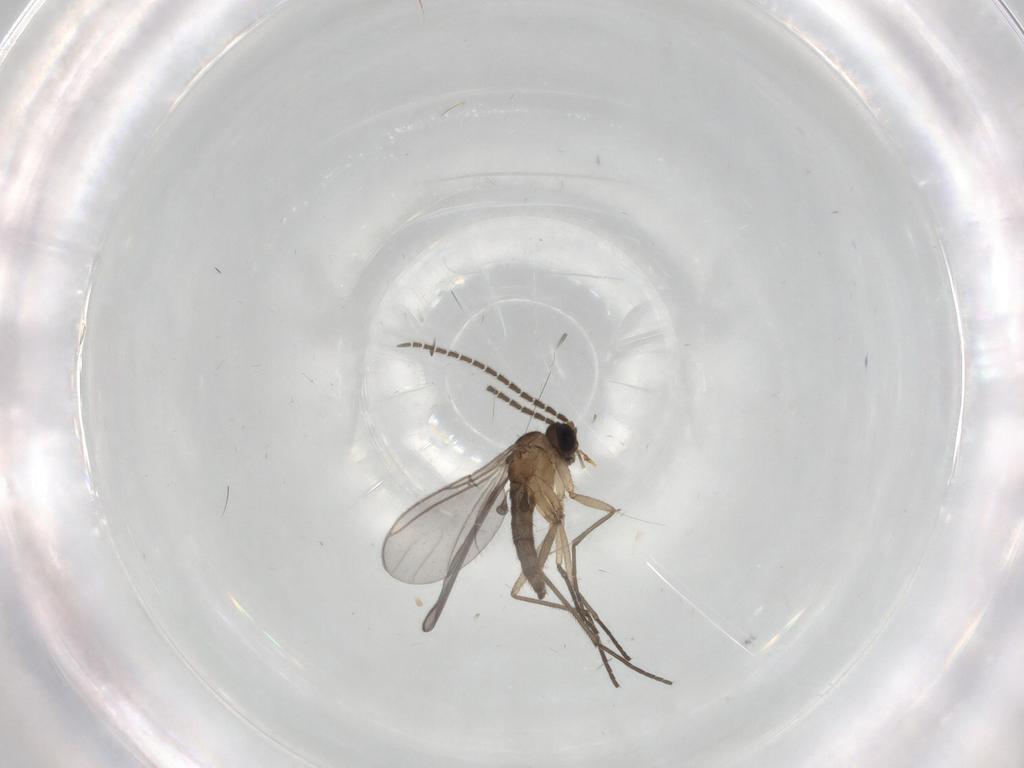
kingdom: Animalia
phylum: Arthropoda
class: Insecta
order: Diptera
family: Sciaridae
